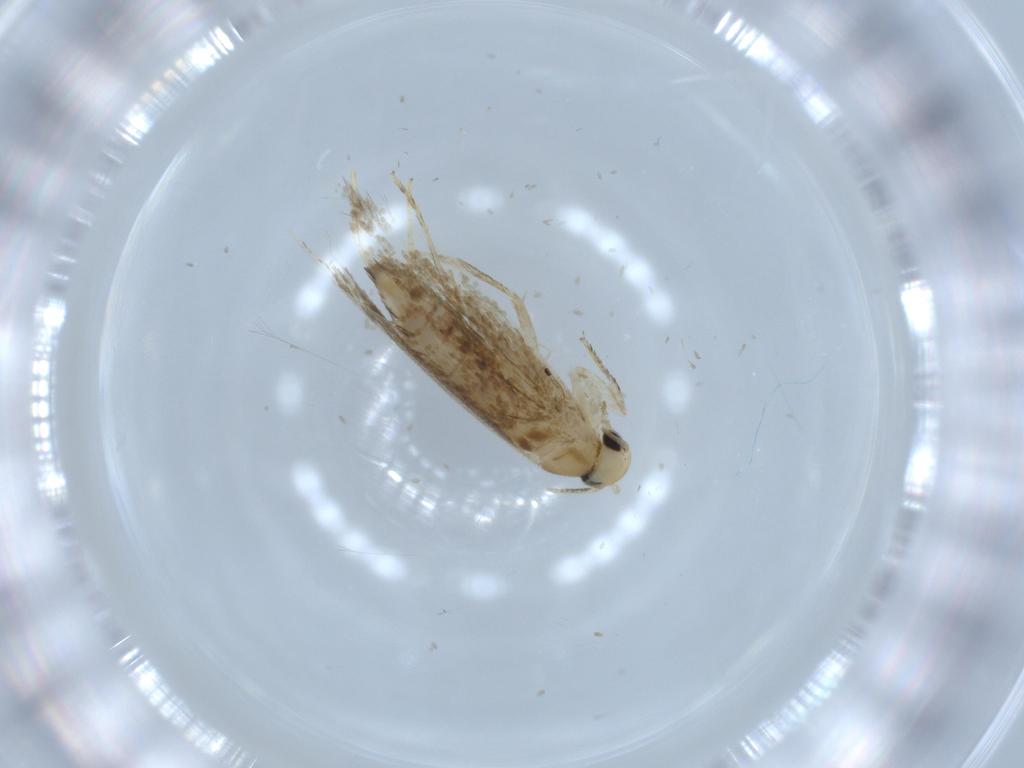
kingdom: Animalia
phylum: Arthropoda
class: Insecta
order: Lepidoptera
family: Tineidae
